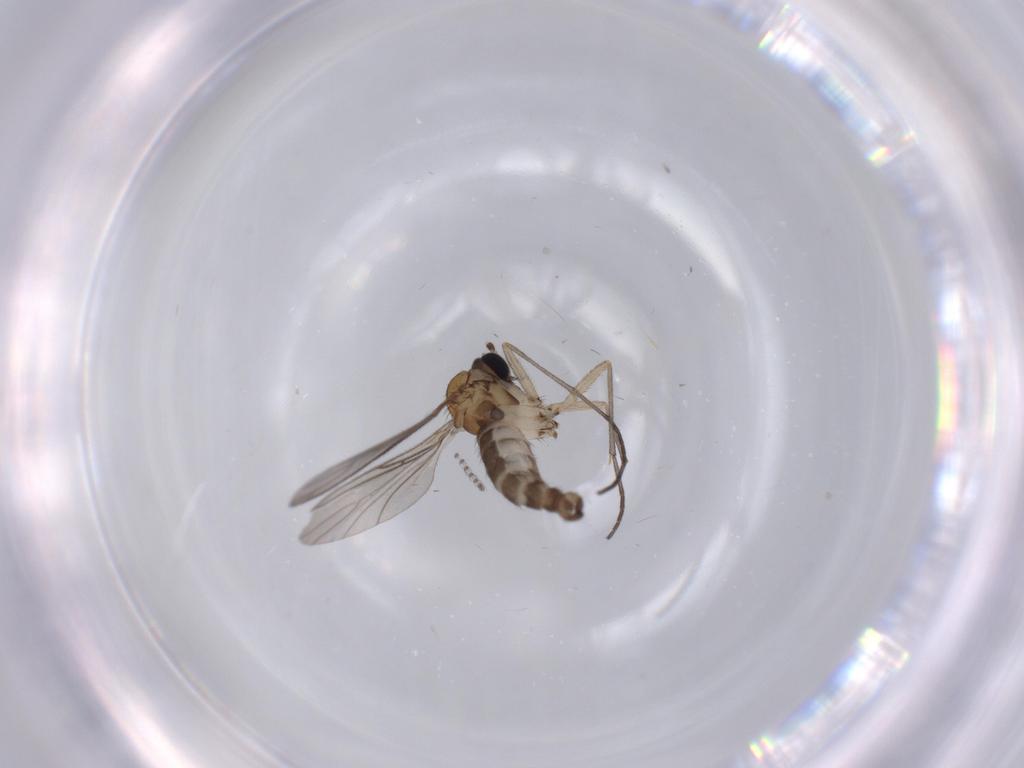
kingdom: Animalia
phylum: Arthropoda
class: Insecta
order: Diptera
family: Sciaridae
